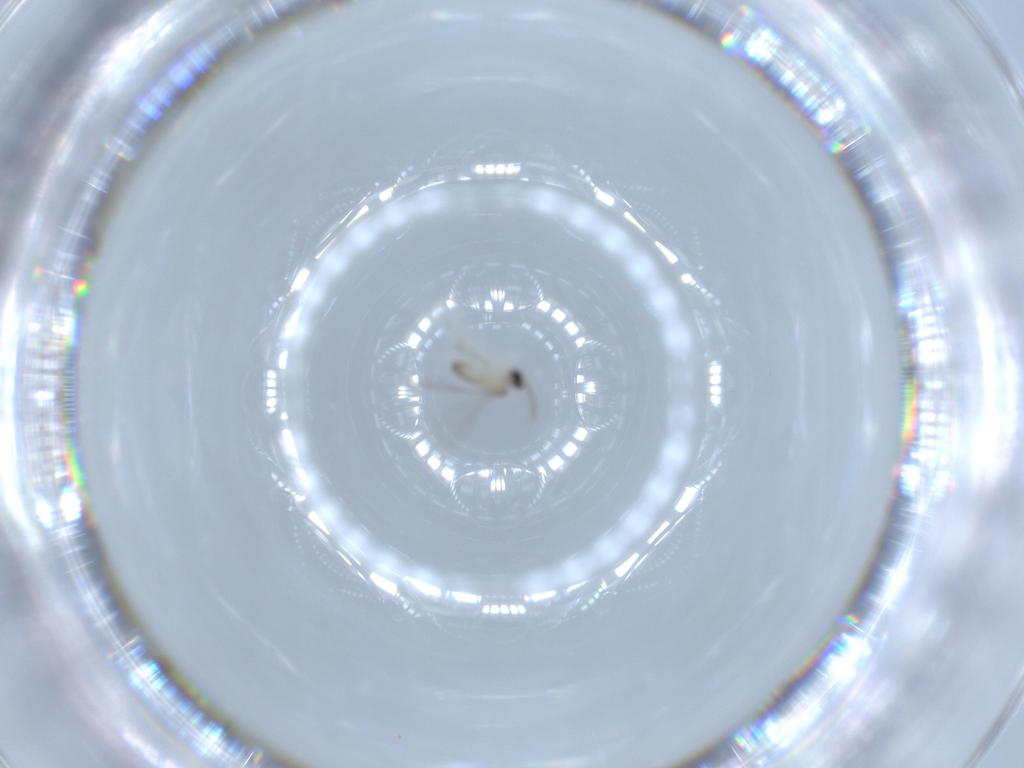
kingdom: Animalia
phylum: Arthropoda
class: Insecta
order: Diptera
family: Cecidomyiidae
